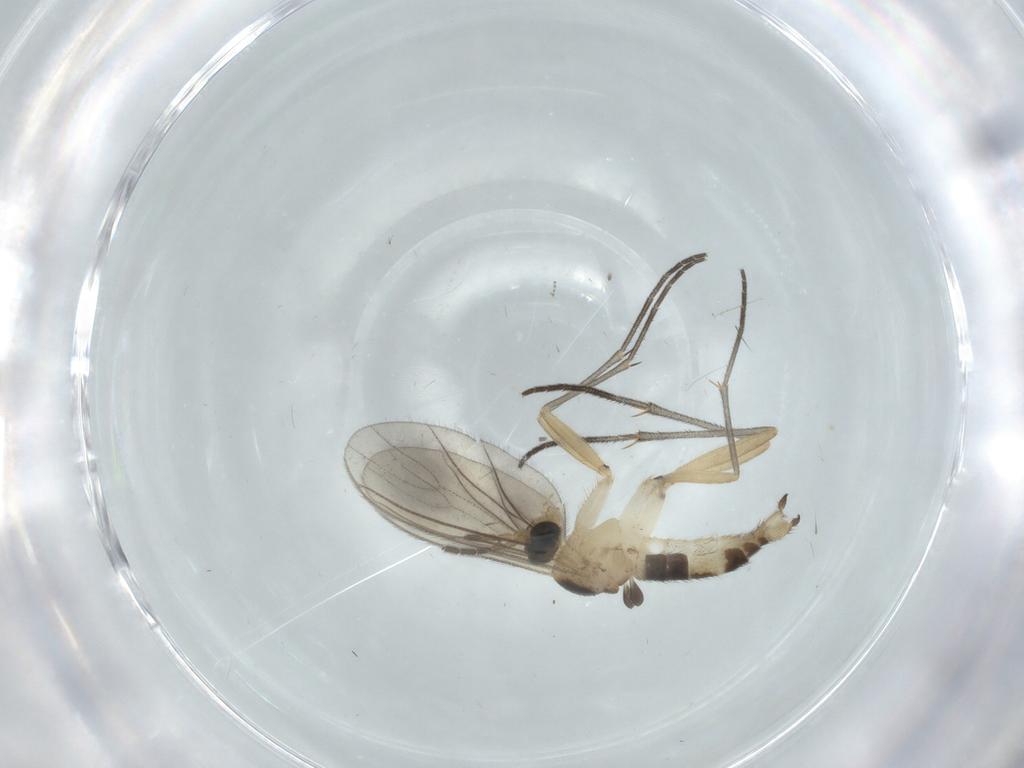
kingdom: Animalia
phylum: Arthropoda
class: Insecta
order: Diptera
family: Sciaridae
